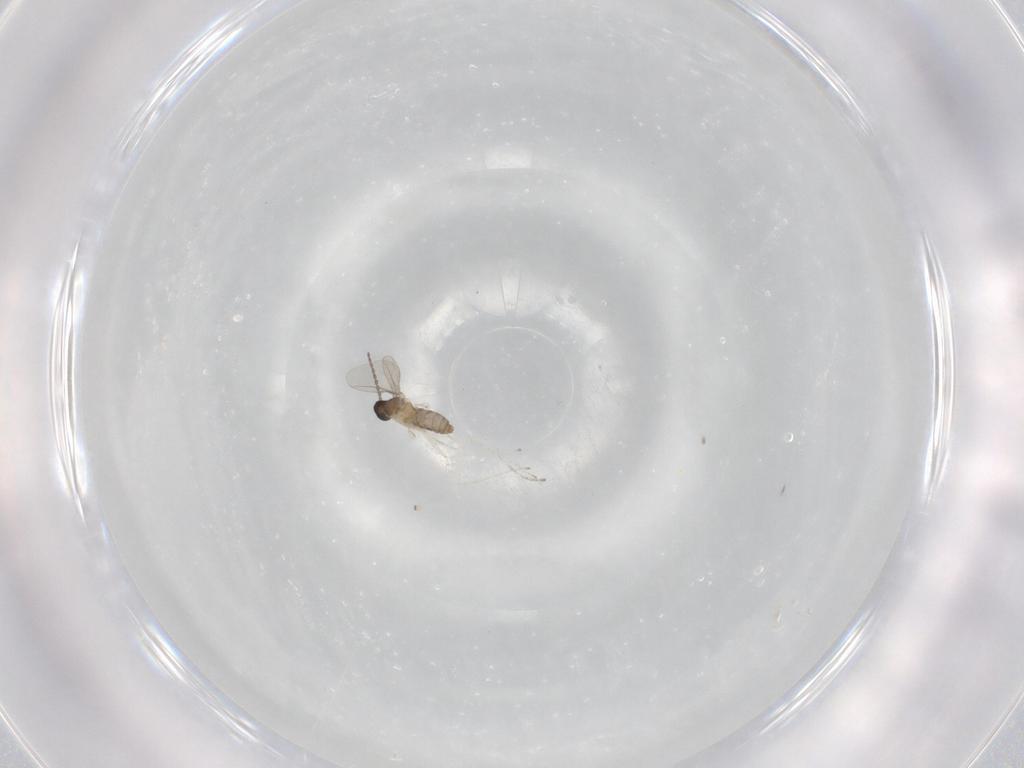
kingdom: Animalia
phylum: Arthropoda
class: Insecta
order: Diptera
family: Cecidomyiidae
